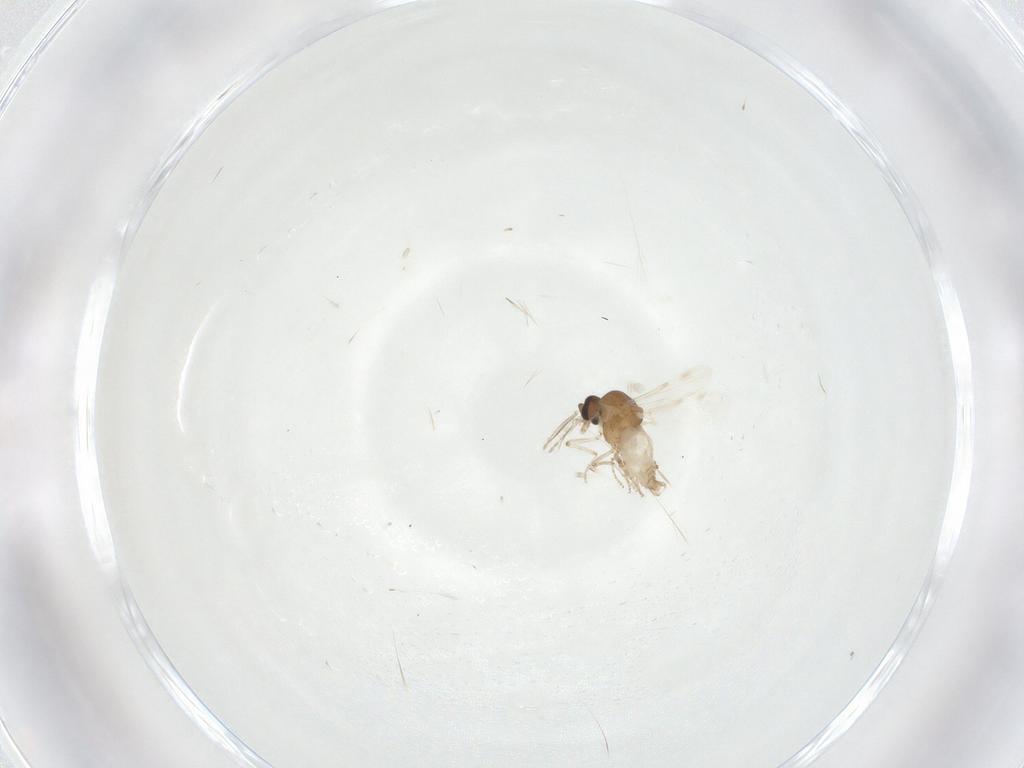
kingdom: Animalia
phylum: Arthropoda
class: Insecta
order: Diptera
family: Ceratopogonidae
